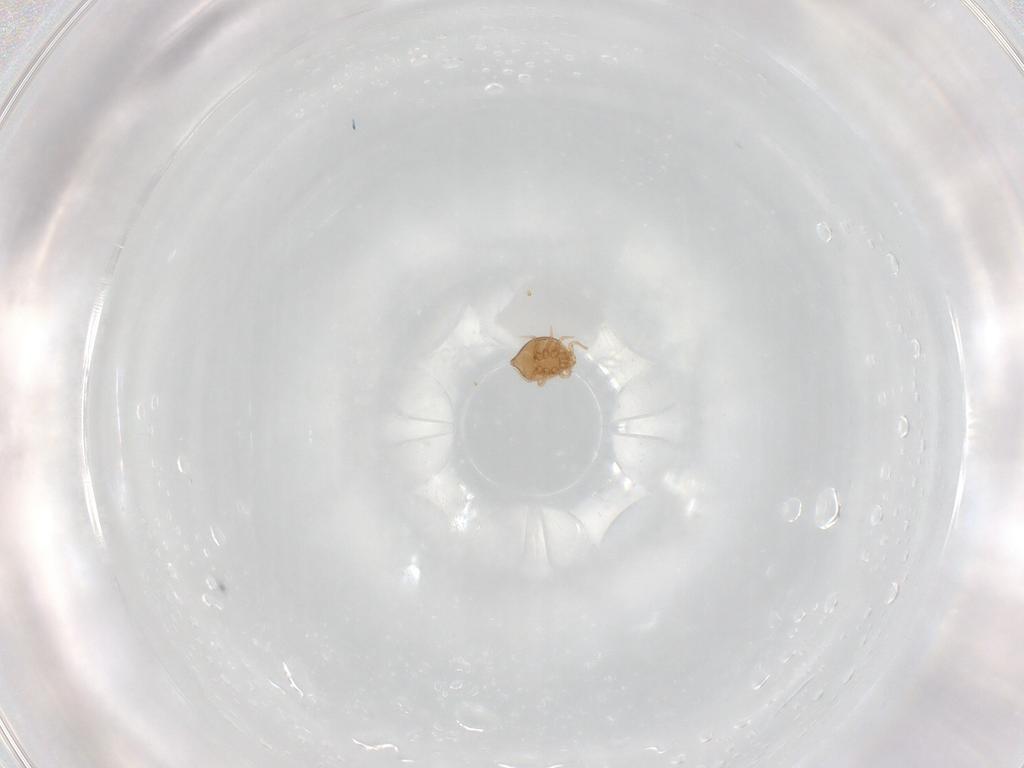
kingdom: Animalia
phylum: Arthropoda
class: Arachnida
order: Mesostigmata
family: Polyaspididae
